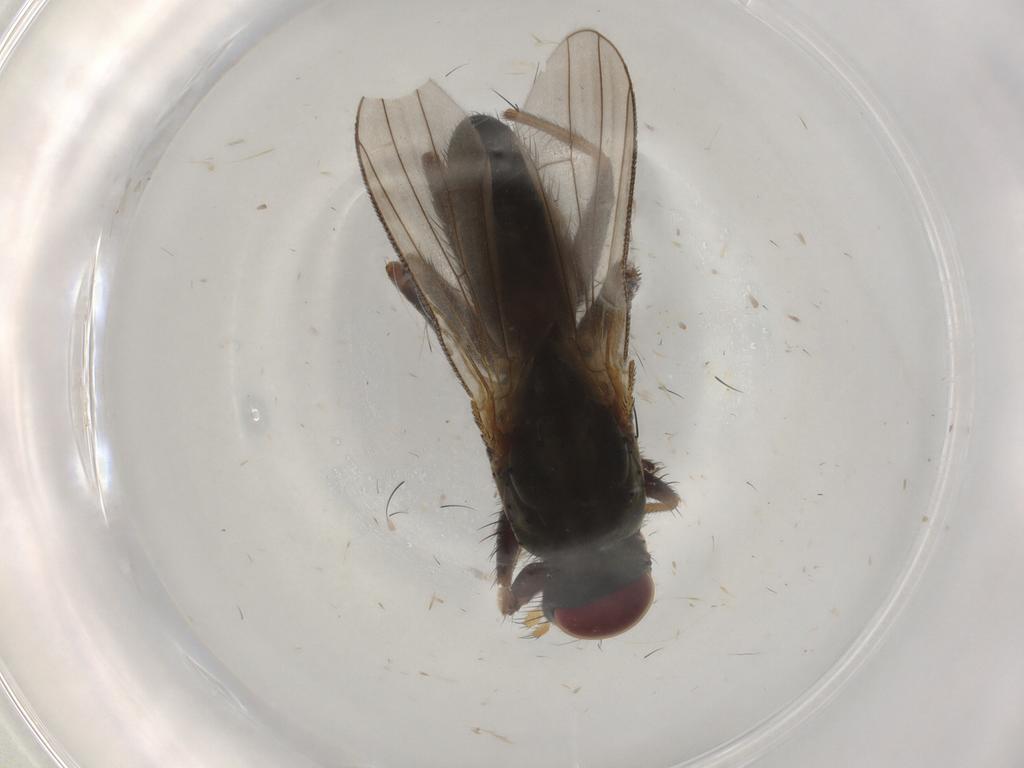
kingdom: Animalia
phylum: Arthropoda
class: Insecta
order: Diptera
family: Muscidae
